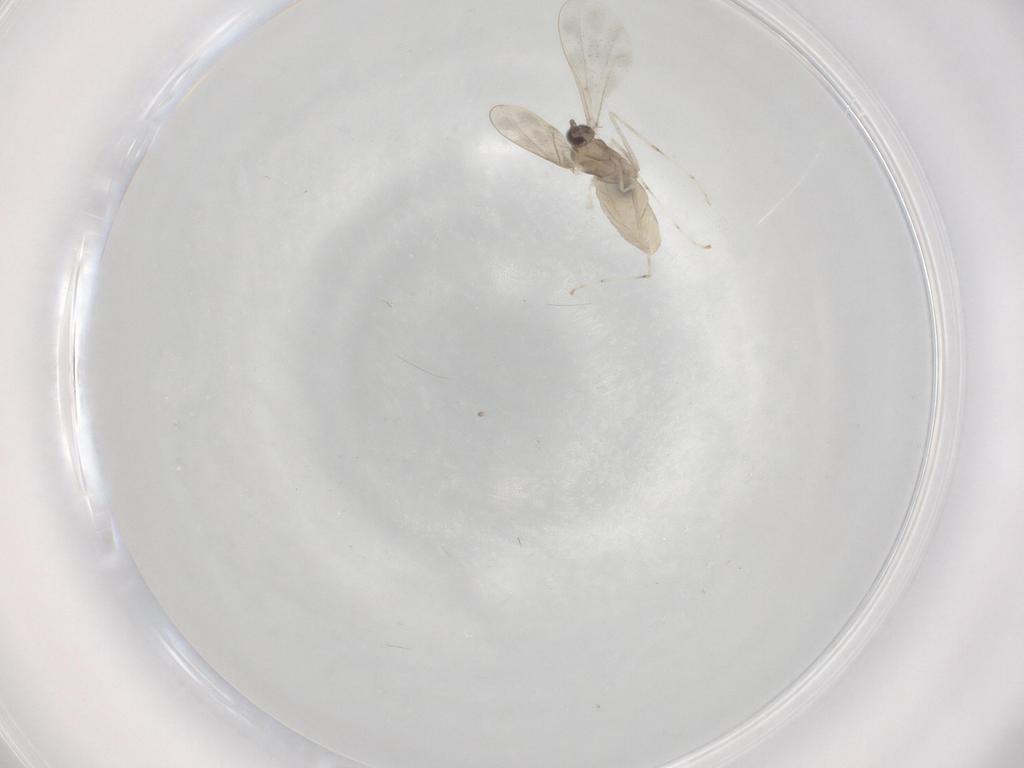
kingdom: Animalia
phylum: Arthropoda
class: Insecta
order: Diptera
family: Cecidomyiidae
